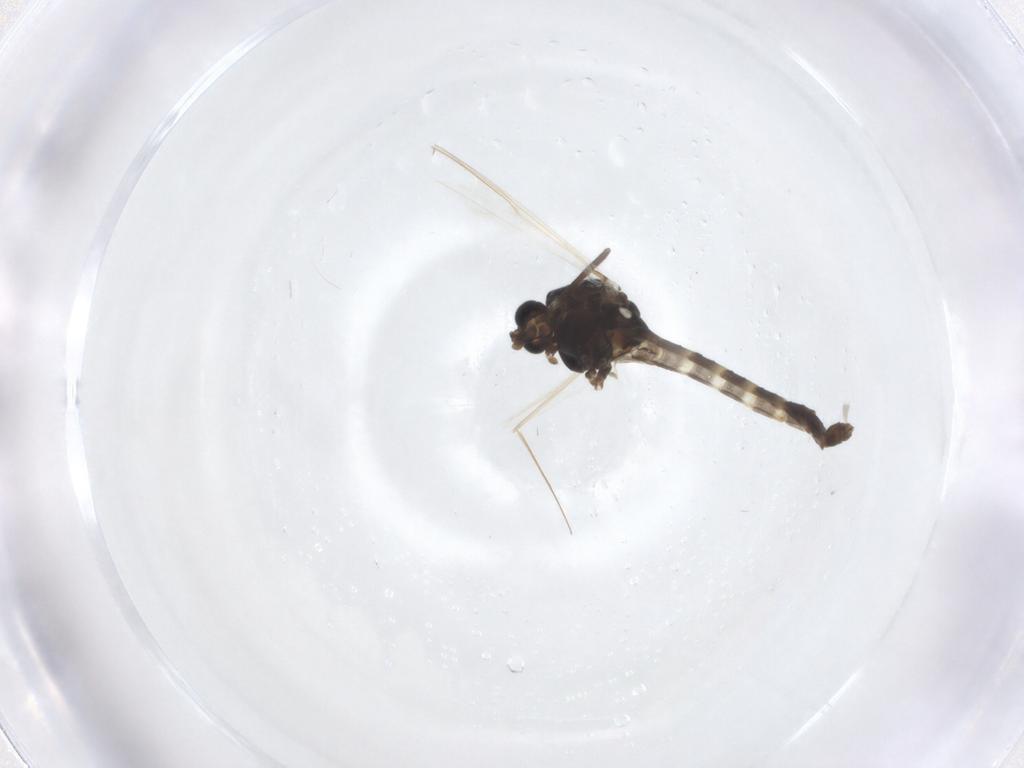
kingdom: Animalia
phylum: Arthropoda
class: Insecta
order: Diptera
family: Chironomidae
